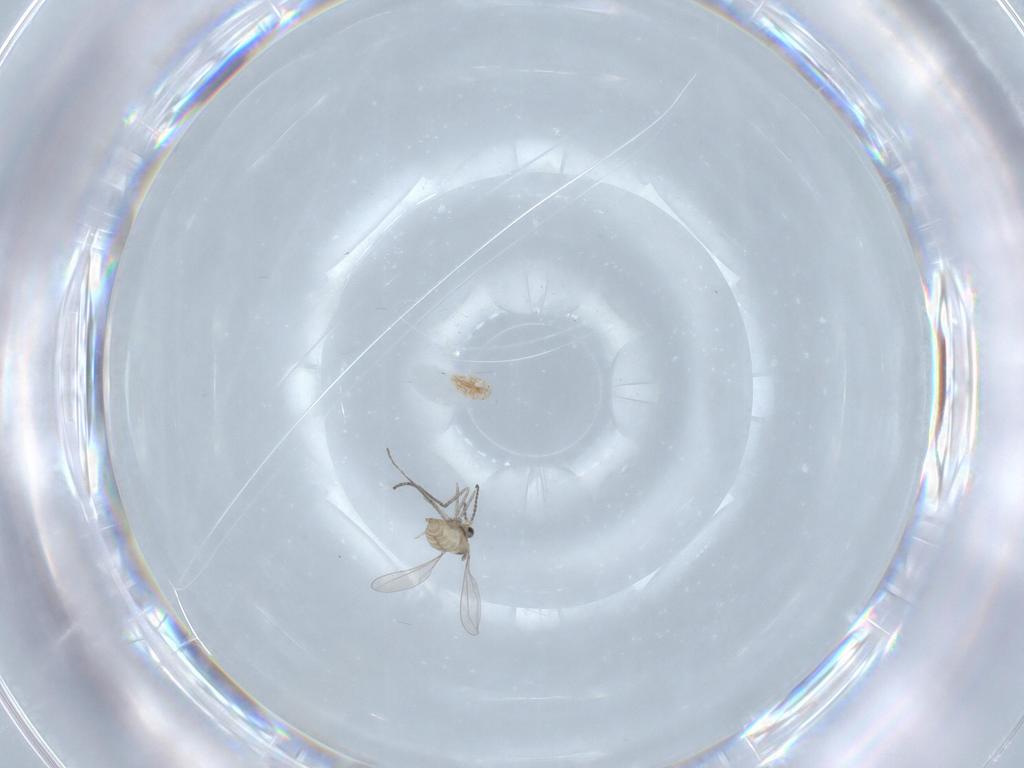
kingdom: Animalia
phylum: Arthropoda
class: Insecta
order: Diptera
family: Cecidomyiidae
